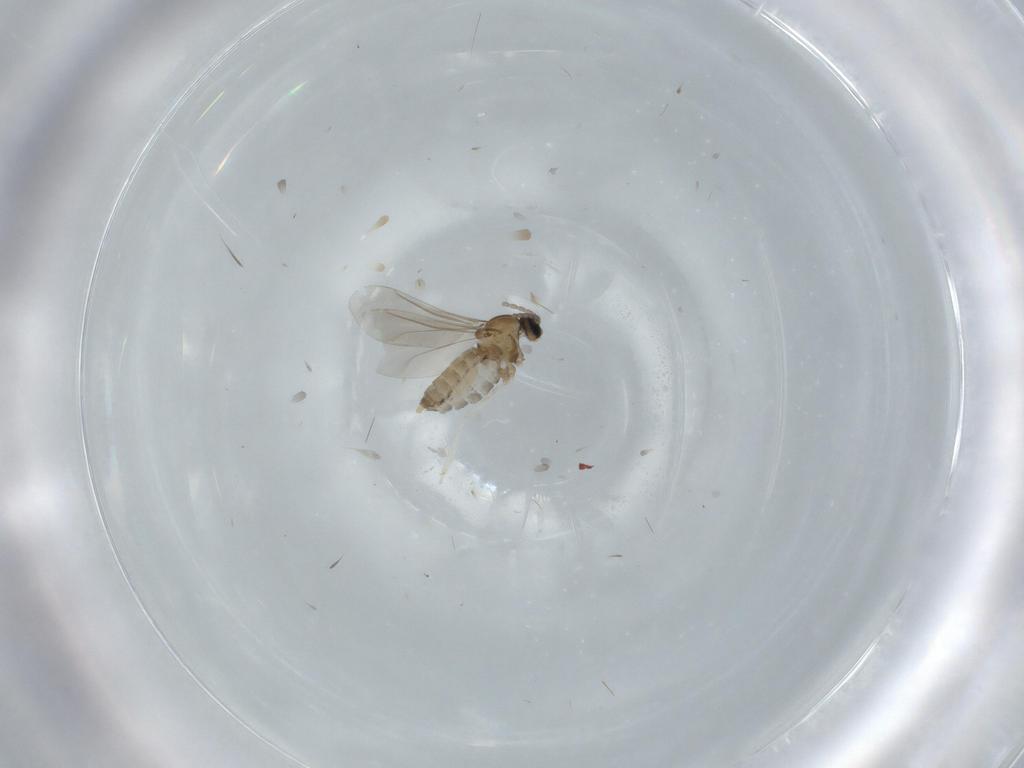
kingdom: Animalia
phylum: Arthropoda
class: Insecta
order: Diptera
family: Cecidomyiidae
